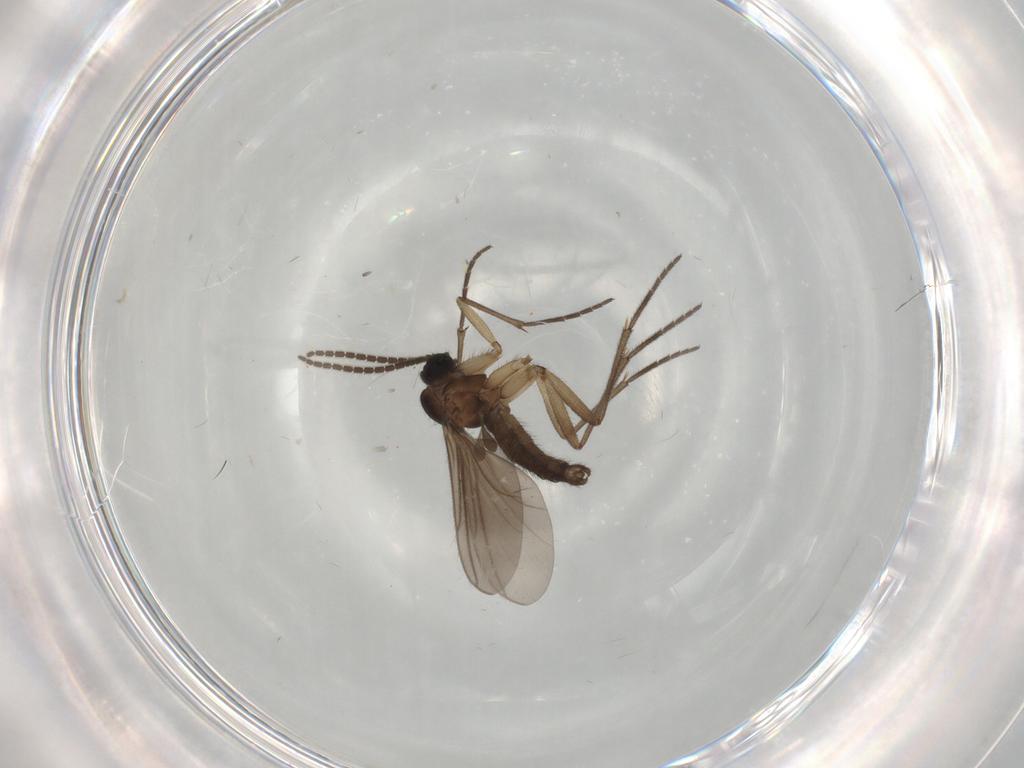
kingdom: Animalia
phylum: Arthropoda
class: Insecta
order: Diptera
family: Sciaridae
